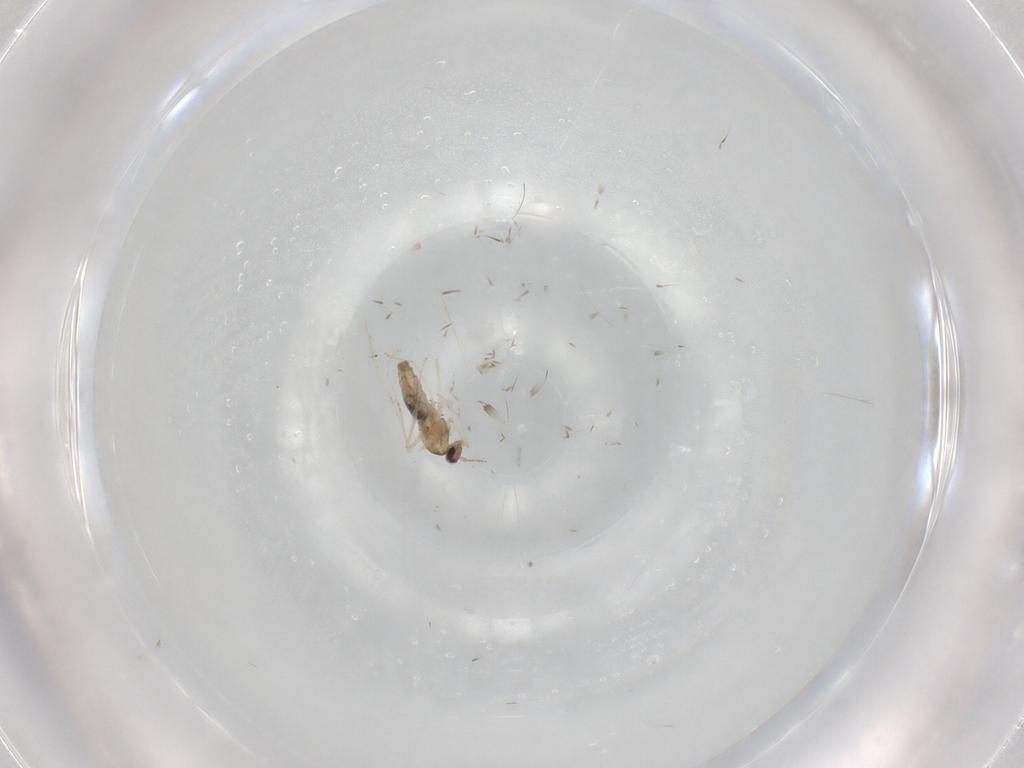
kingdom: Animalia
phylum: Arthropoda
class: Insecta
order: Diptera
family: Cecidomyiidae
